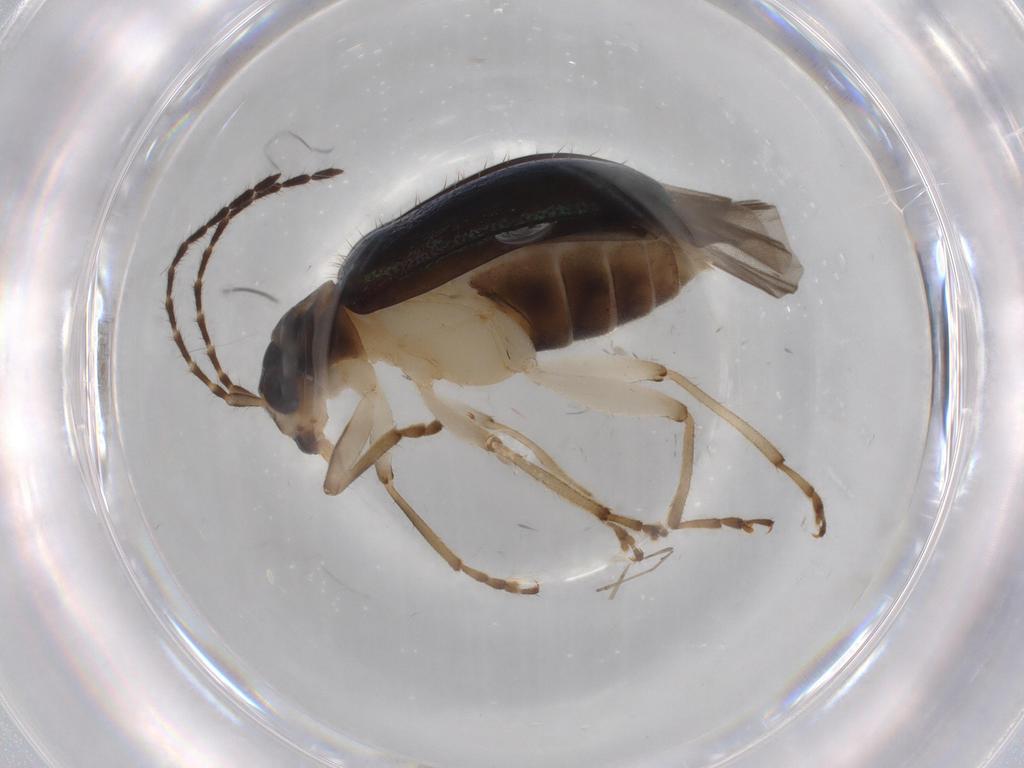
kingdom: Animalia
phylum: Arthropoda
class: Insecta
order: Coleoptera
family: Chrysomelidae
